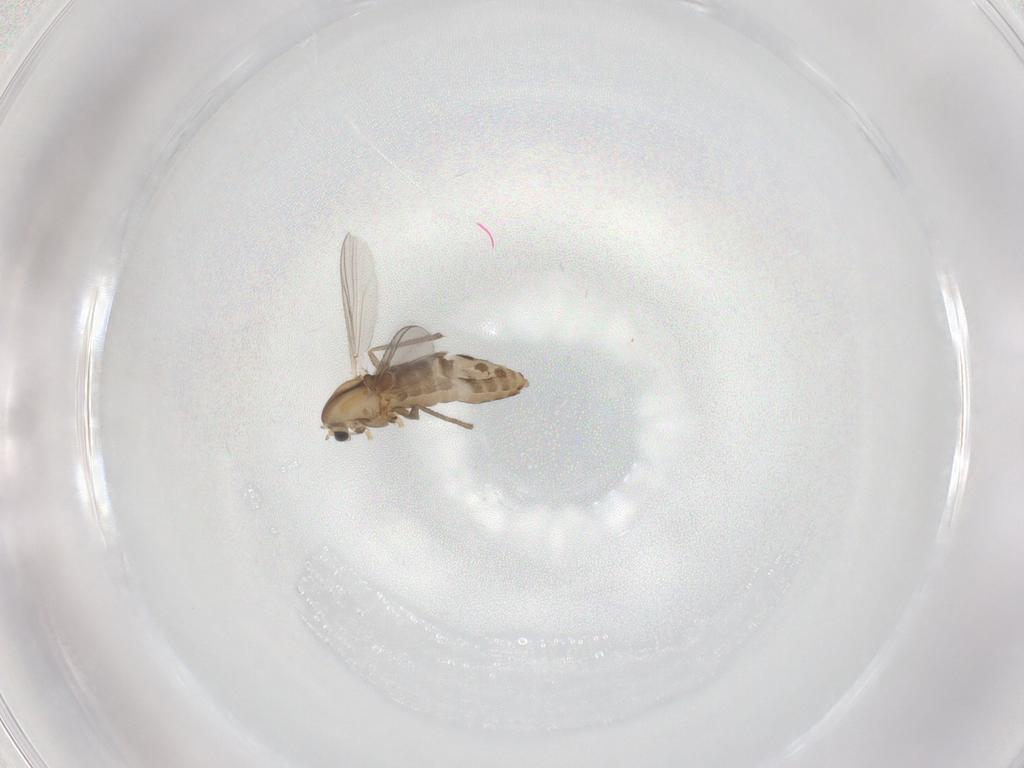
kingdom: Animalia
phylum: Arthropoda
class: Insecta
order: Diptera
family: Chironomidae
